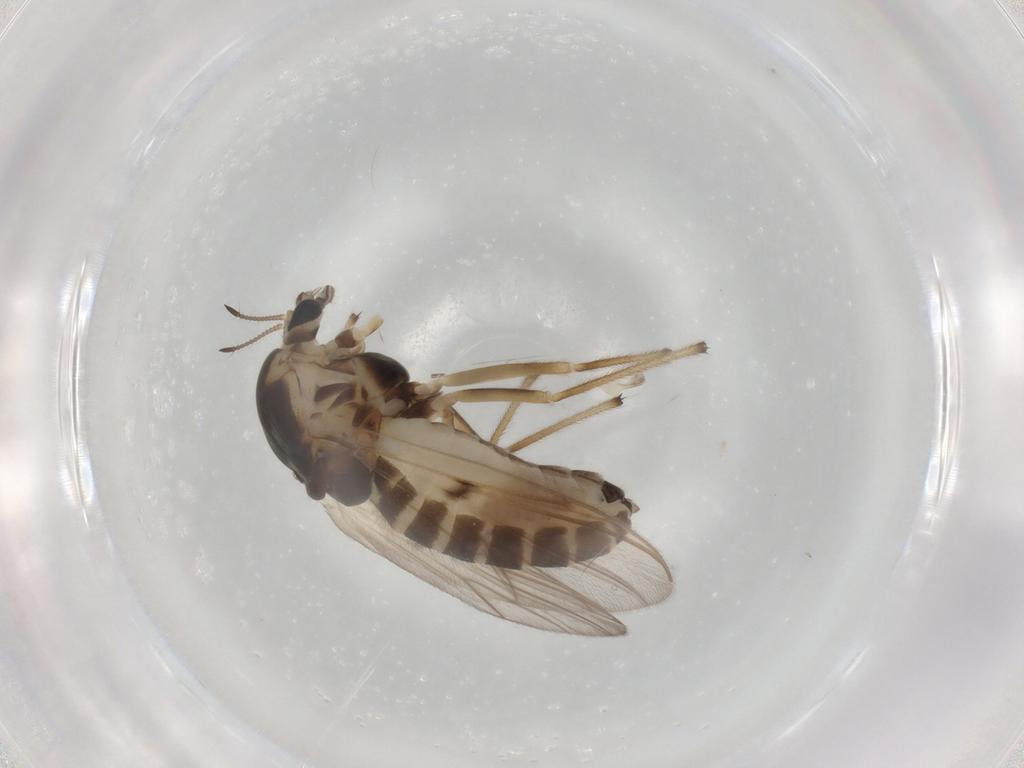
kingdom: Animalia
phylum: Arthropoda
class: Insecta
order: Diptera
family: Chironomidae
